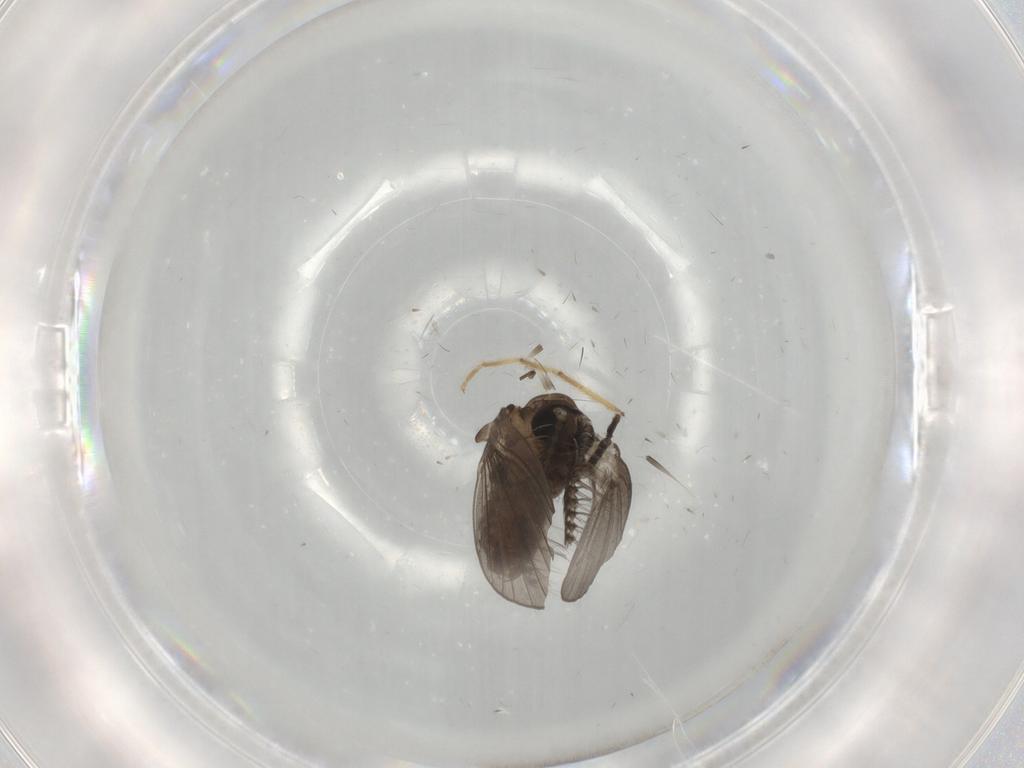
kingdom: Animalia
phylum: Arthropoda
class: Insecta
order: Diptera
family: Ceratopogonidae
